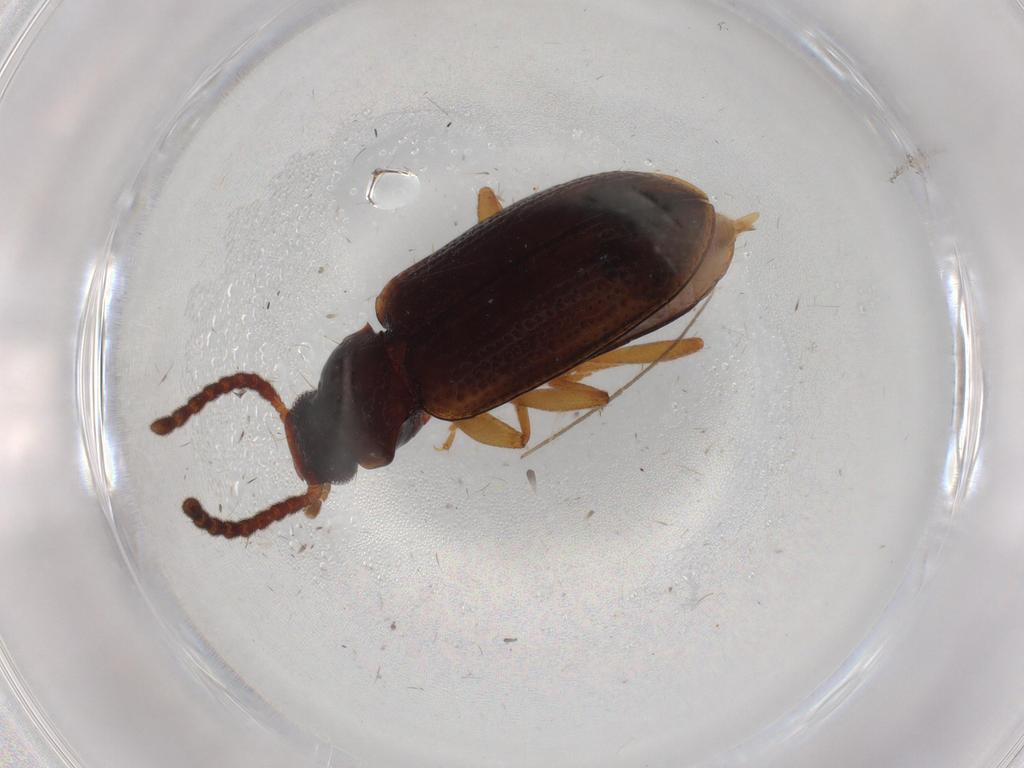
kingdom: Animalia
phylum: Arthropoda
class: Insecta
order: Coleoptera
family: Tenebrionidae
